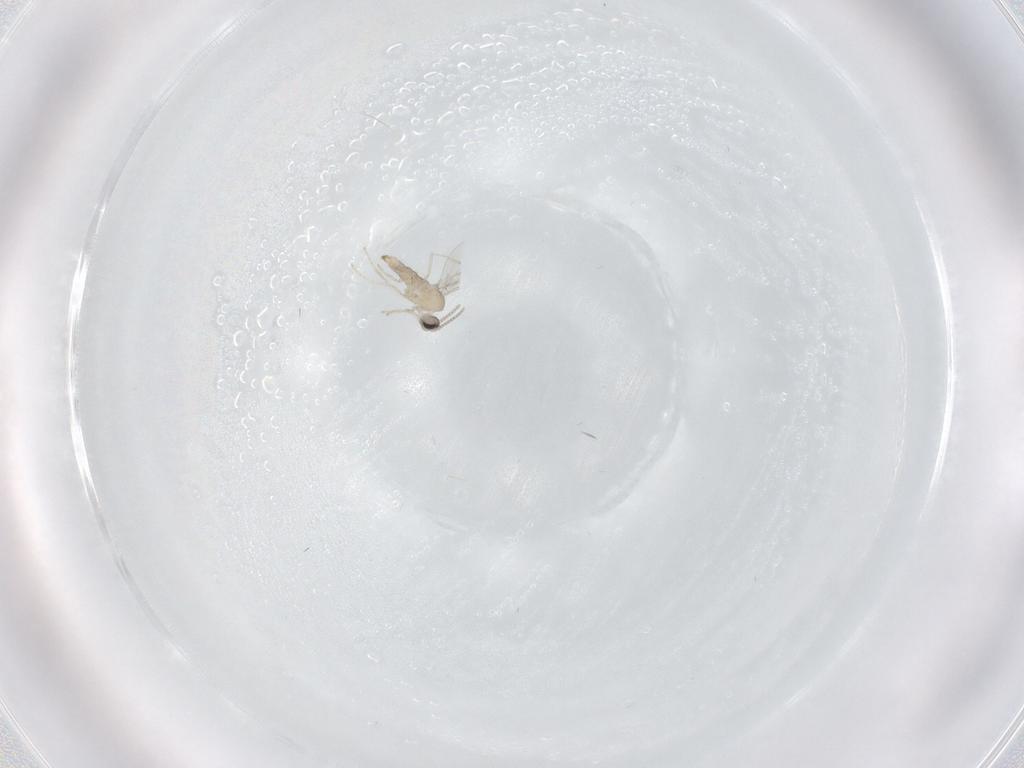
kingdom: Animalia
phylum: Arthropoda
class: Insecta
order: Diptera
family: Cecidomyiidae
